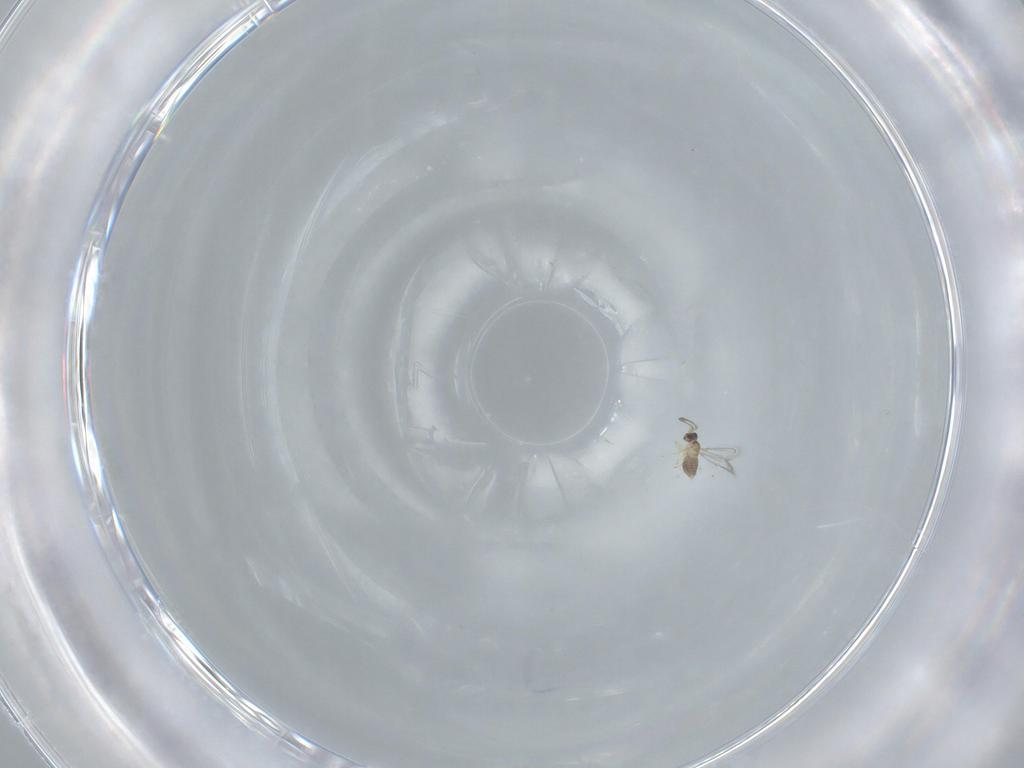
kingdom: Animalia
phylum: Arthropoda
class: Insecta
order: Hymenoptera
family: Mymaridae
